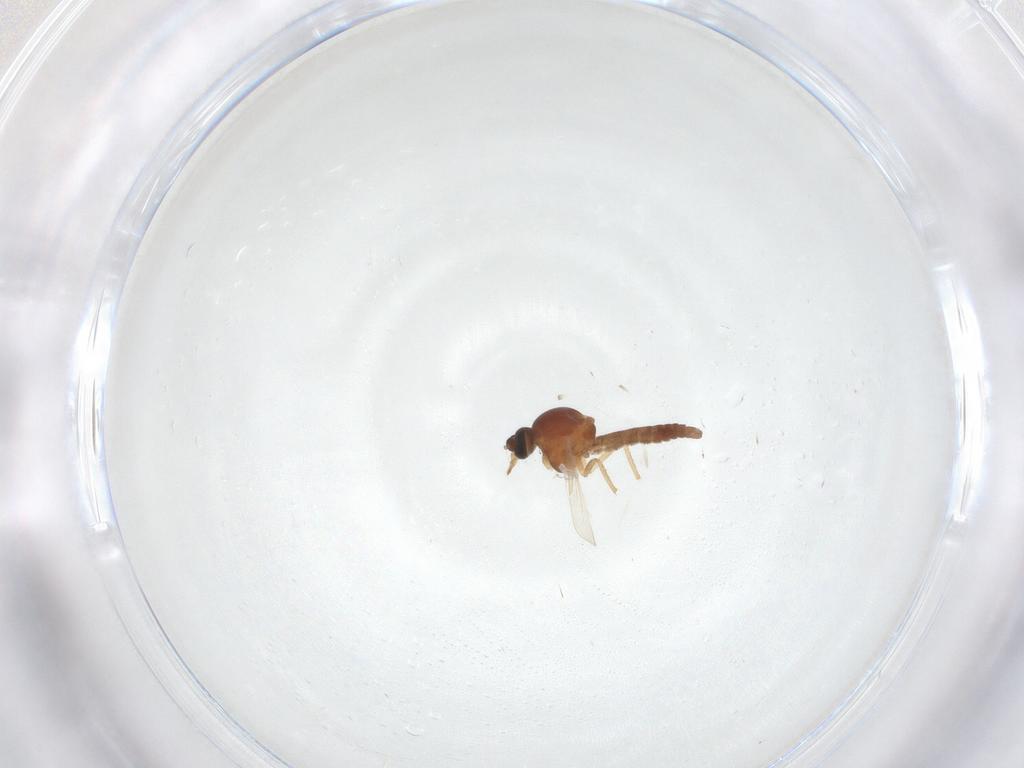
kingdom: Animalia
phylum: Arthropoda
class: Insecta
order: Diptera
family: Ceratopogonidae
